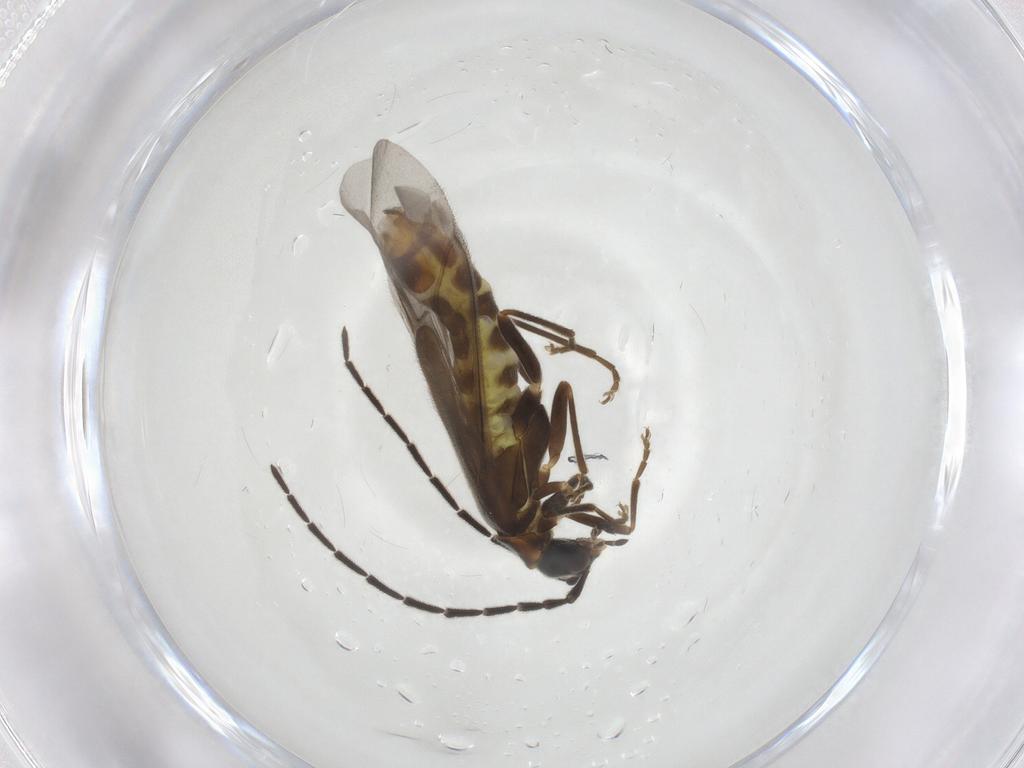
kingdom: Animalia
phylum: Arthropoda
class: Insecta
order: Coleoptera
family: Cantharidae
